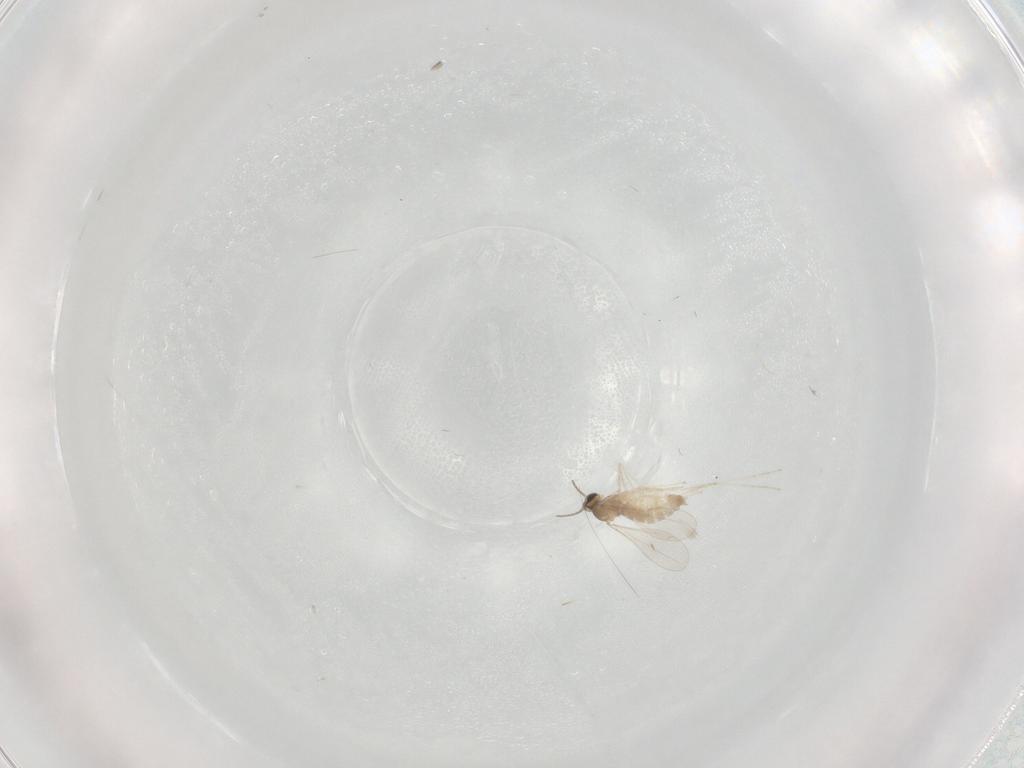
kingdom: Animalia
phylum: Arthropoda
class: Insecta
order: Diptera
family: Cecidomyiidae
